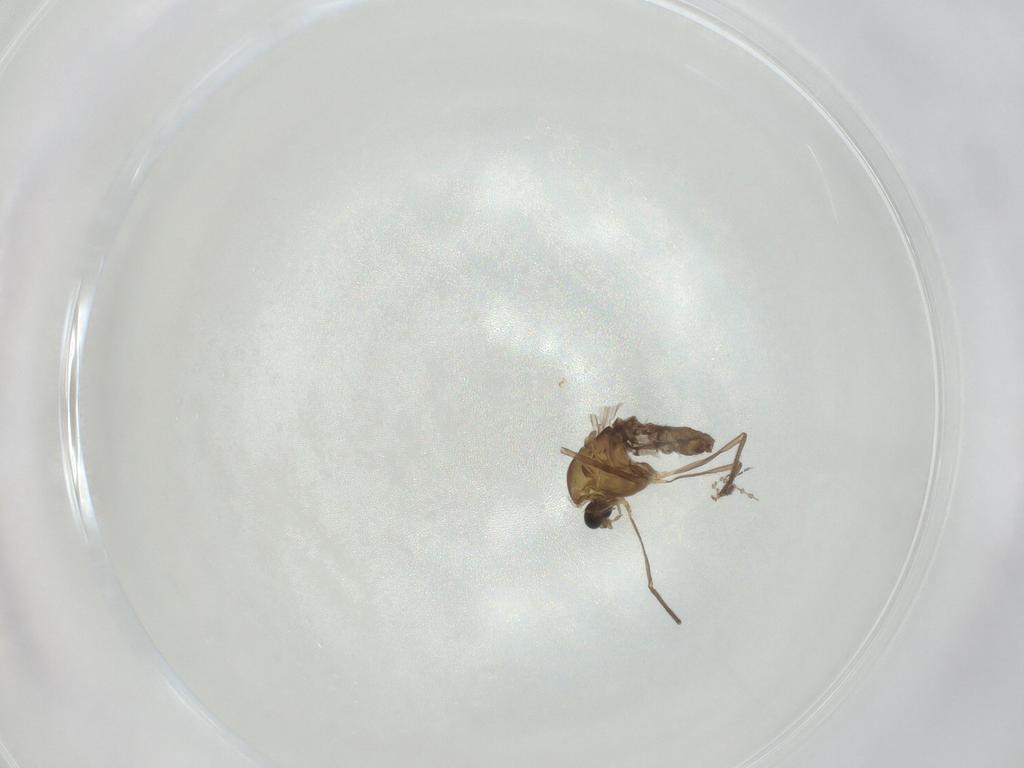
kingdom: Animalia
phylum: Arthropoda
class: Insecta
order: Diptera
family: Chironomidae
